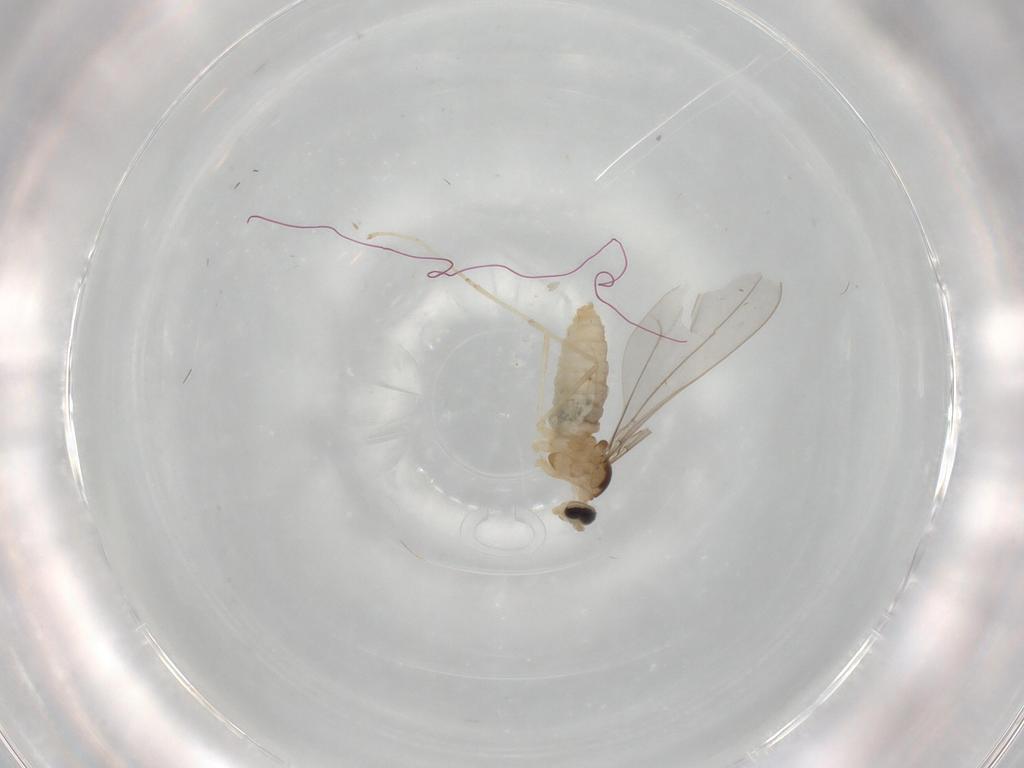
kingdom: Animalia
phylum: Arthropoda
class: Insecta
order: Diptera
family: Cecidomyiidae
